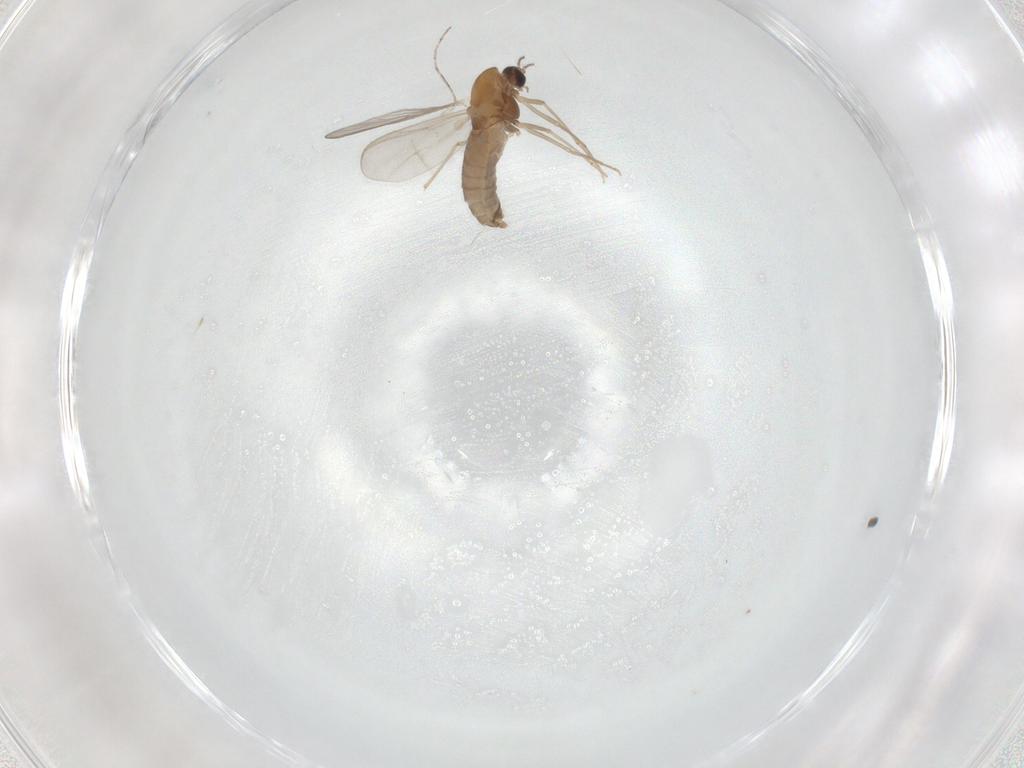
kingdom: Animalia
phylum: Arthropoda
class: Insecta
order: Diptera
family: Chironomidae
